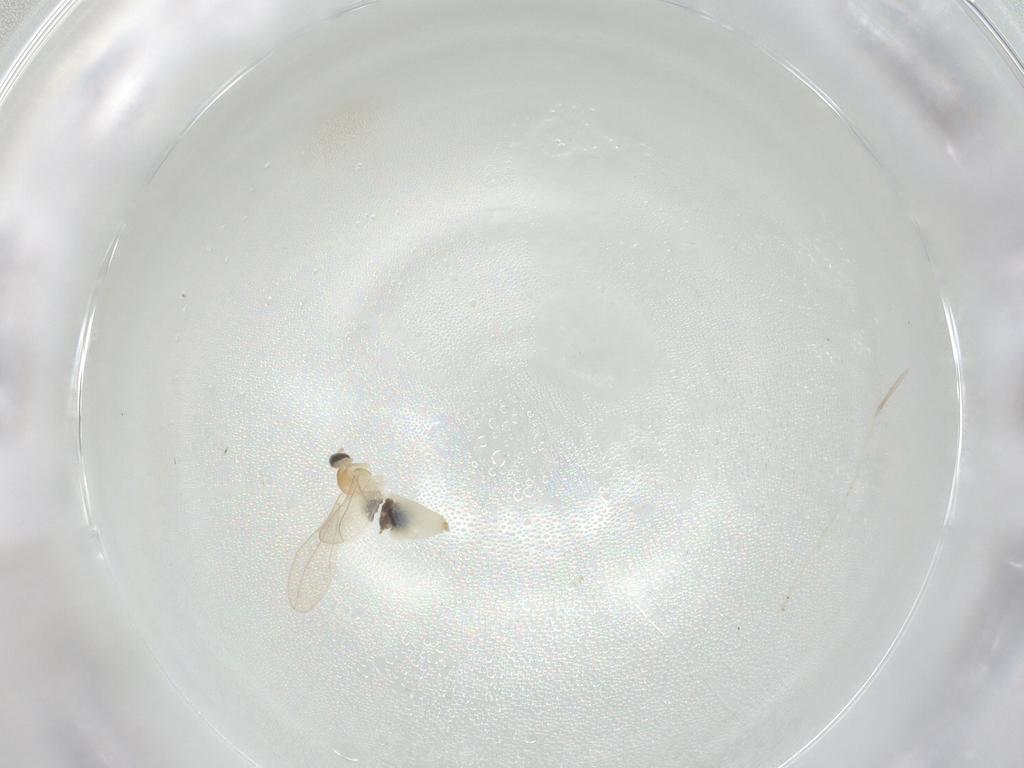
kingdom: Animalia
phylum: Arthropoda
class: Insecta
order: Diptera
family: Cecidomyiidae
